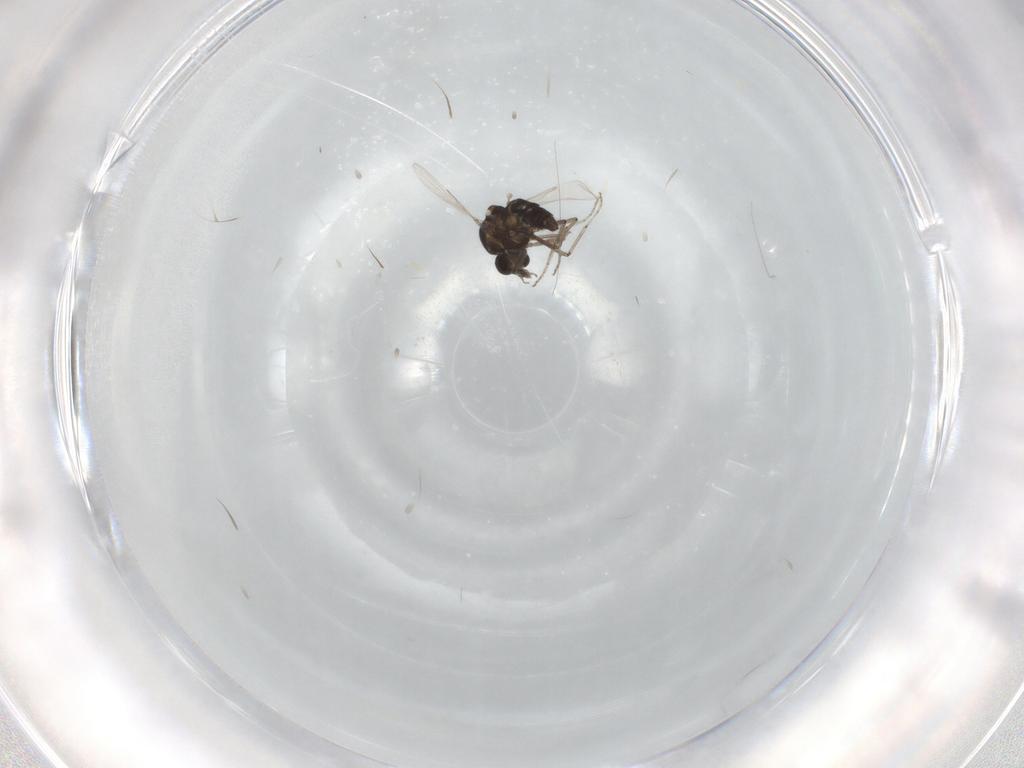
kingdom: Animalia
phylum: Arthropoda
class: Insecta
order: Diptera
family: Ceratopogonidae
